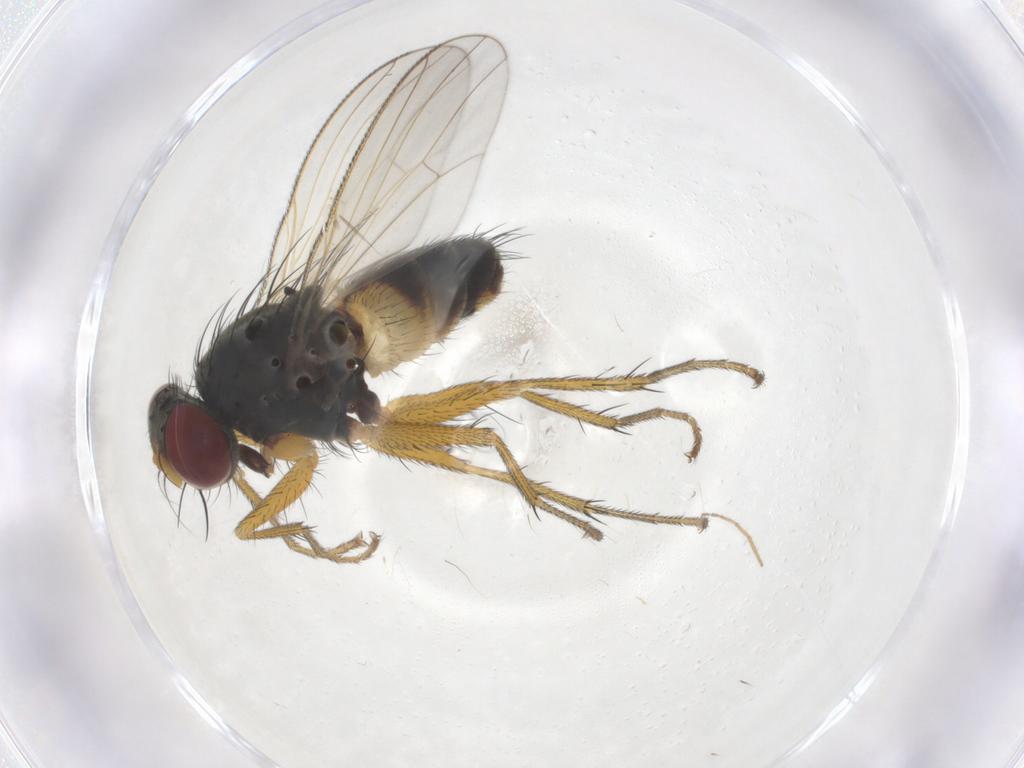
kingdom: Animalia
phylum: Arthropoda
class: Insecta
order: Diptera
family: Muscidae
